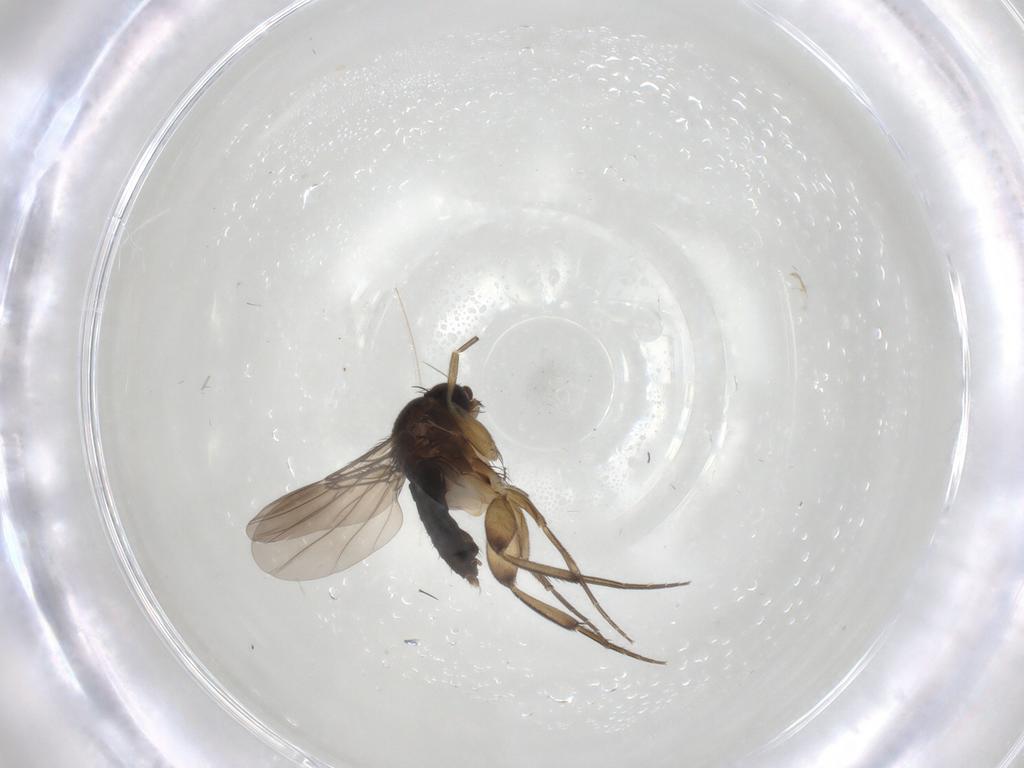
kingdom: Animalia
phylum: Arthropoda
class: Insecta
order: Diptera
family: Phoridae
